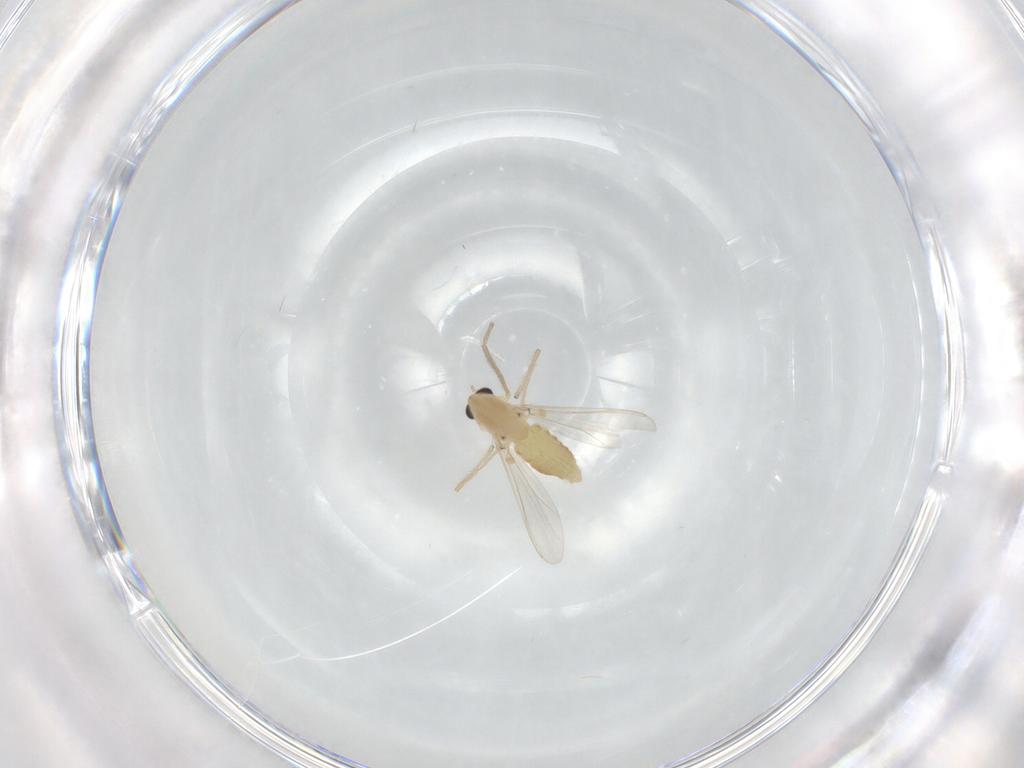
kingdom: Animalia
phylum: Arthropoda
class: Insecta
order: Diptera
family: Chironomidae
